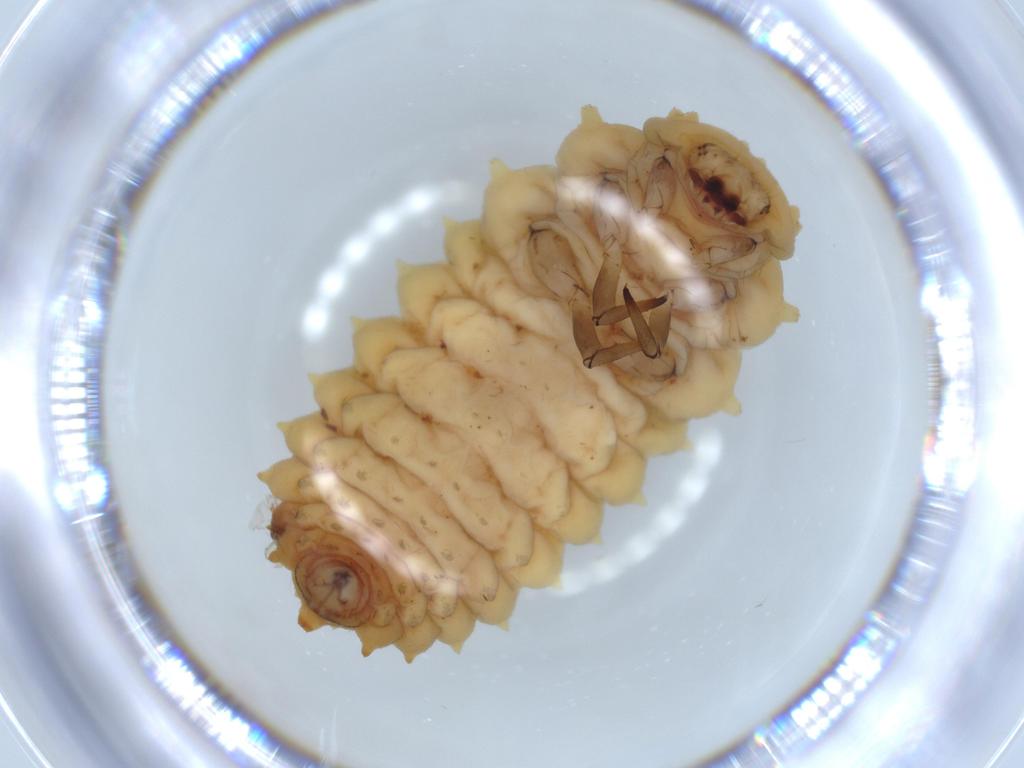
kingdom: Animalia
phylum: Arthropoda
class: Insecta
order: Coleoptera
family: Coccinellidae
